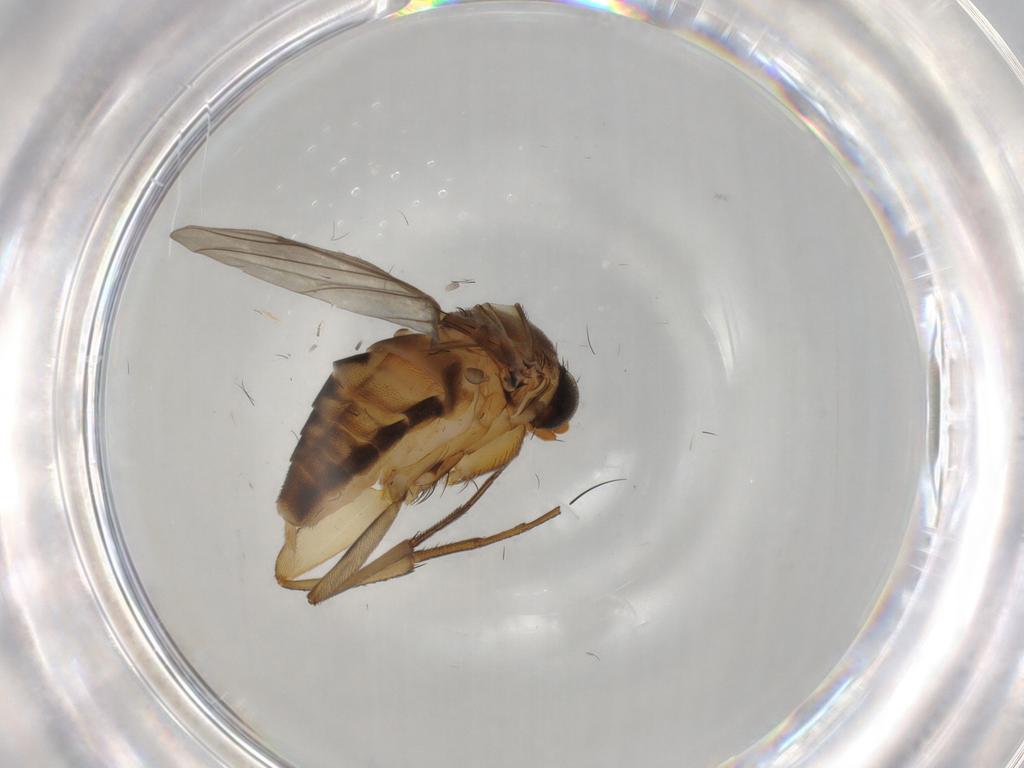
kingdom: Animalia
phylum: Arthropoda
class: Insecta
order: Diptera
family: Phoridae
